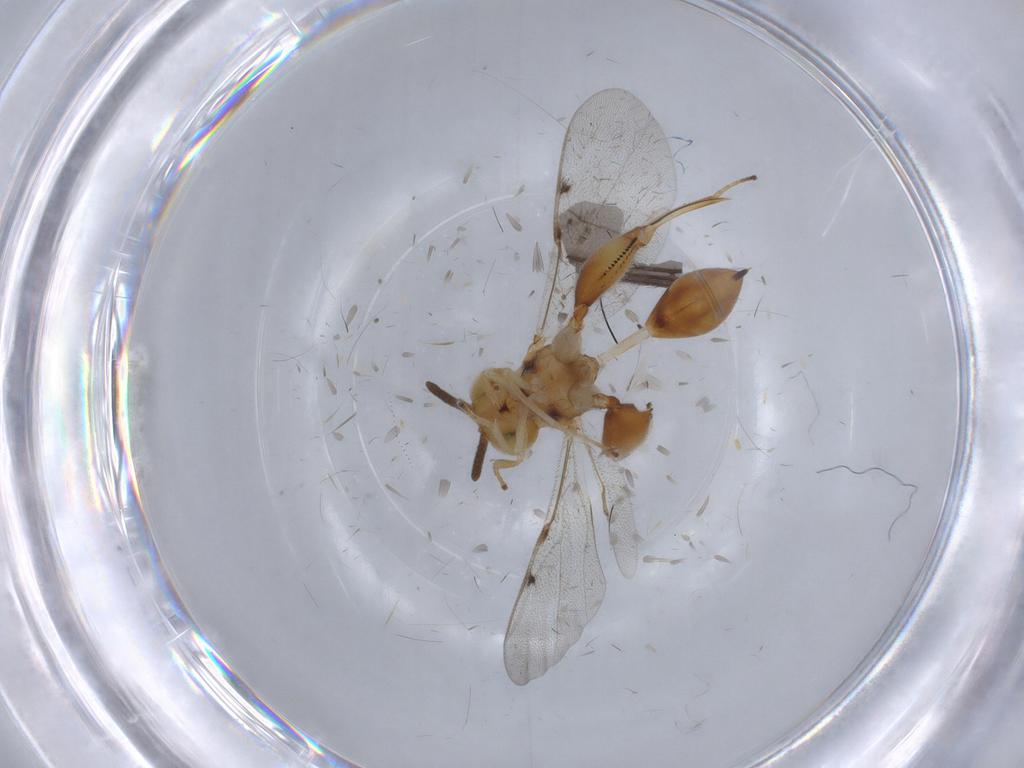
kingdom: Animalia
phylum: Arthropoda
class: Insecta
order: Hymenoptera
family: Chalcididae
